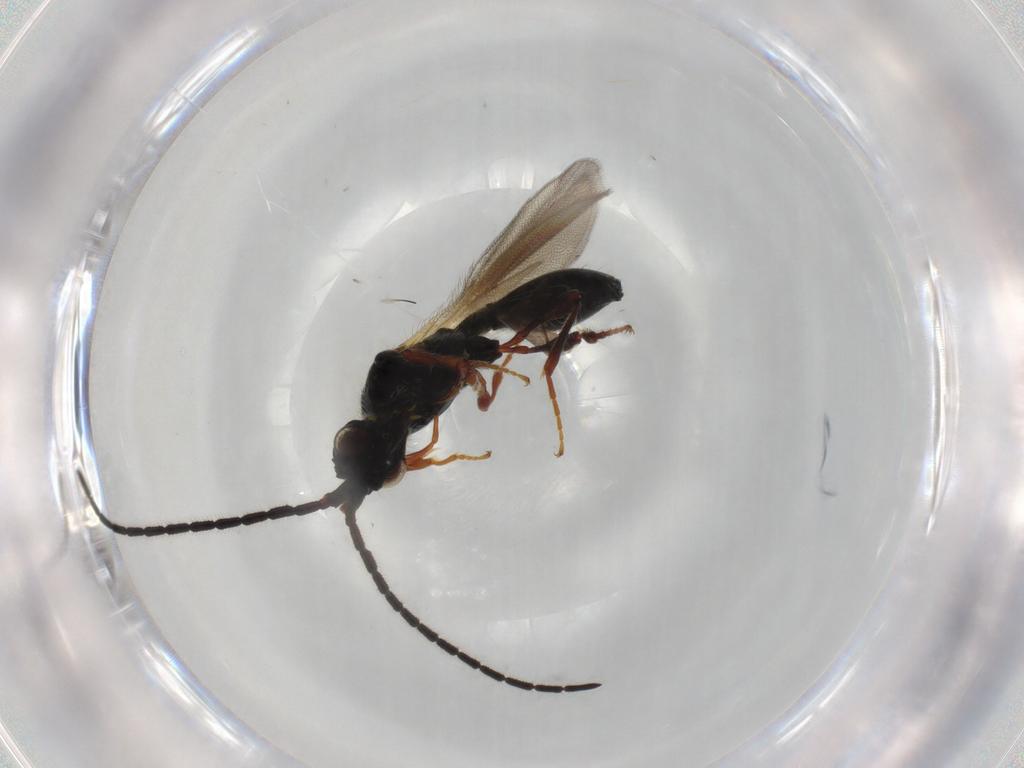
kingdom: Animalia
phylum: Arthropoda
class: Insecta
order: Hymenoptera
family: Diapriidae
